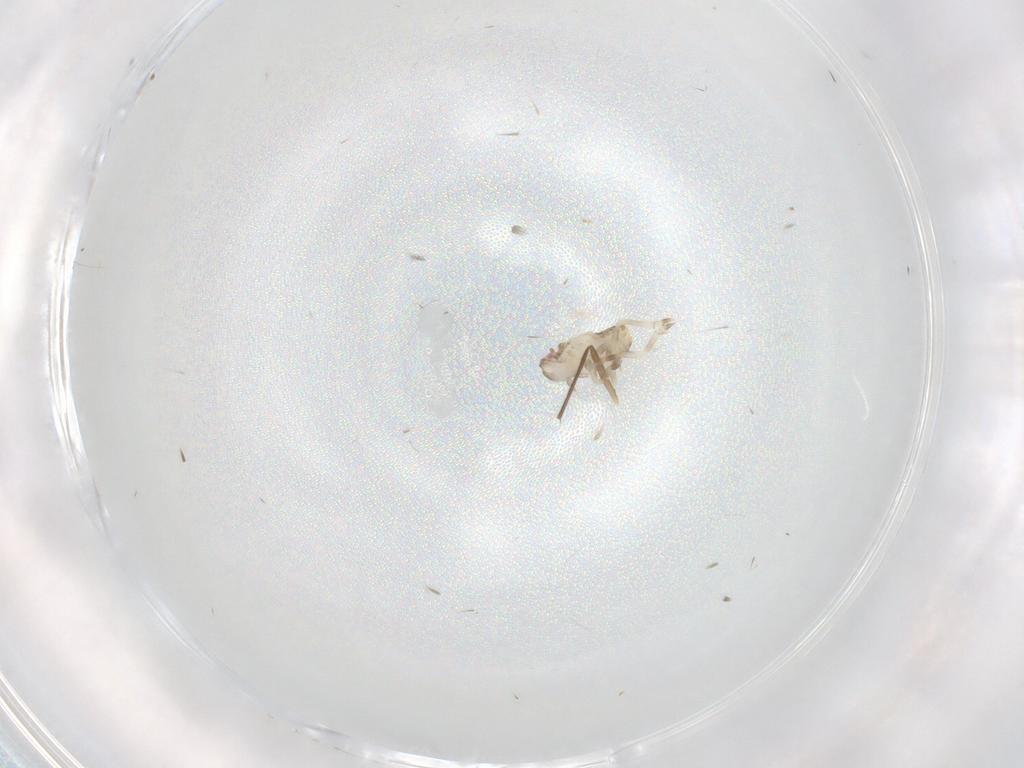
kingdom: Animalia
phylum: Arthropoda
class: Insecta
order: Hemiptera
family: Flatidae
